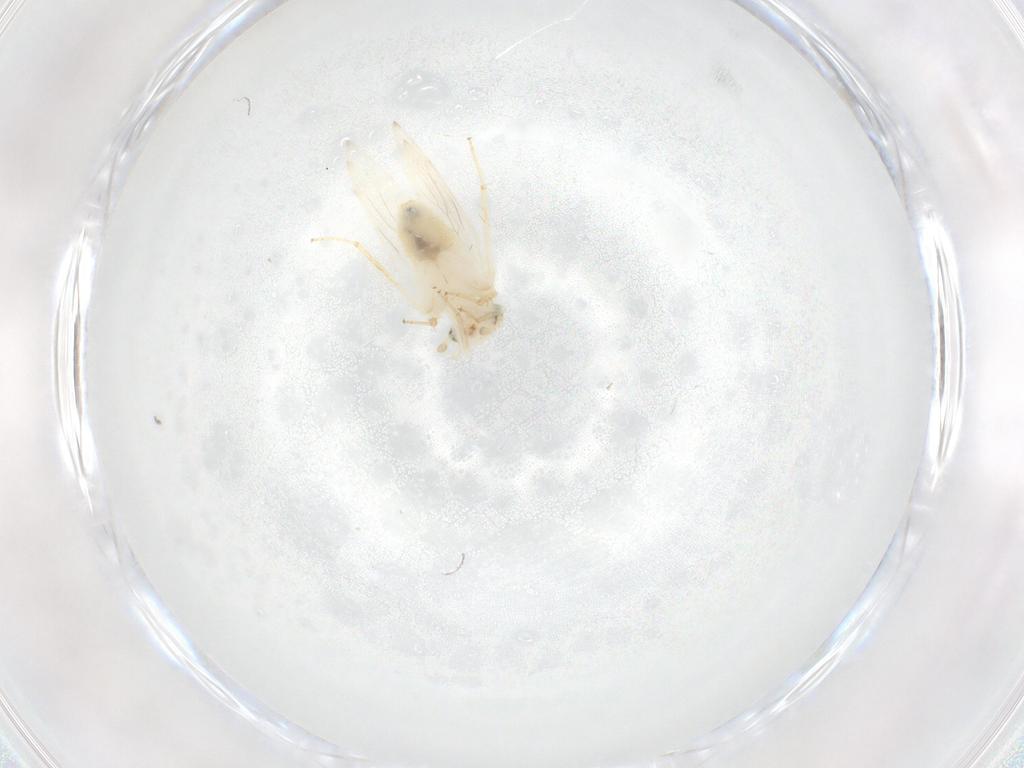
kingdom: Animalia
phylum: Arthropoda
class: Insecta
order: Psocodea
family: Lepidopsocidae
